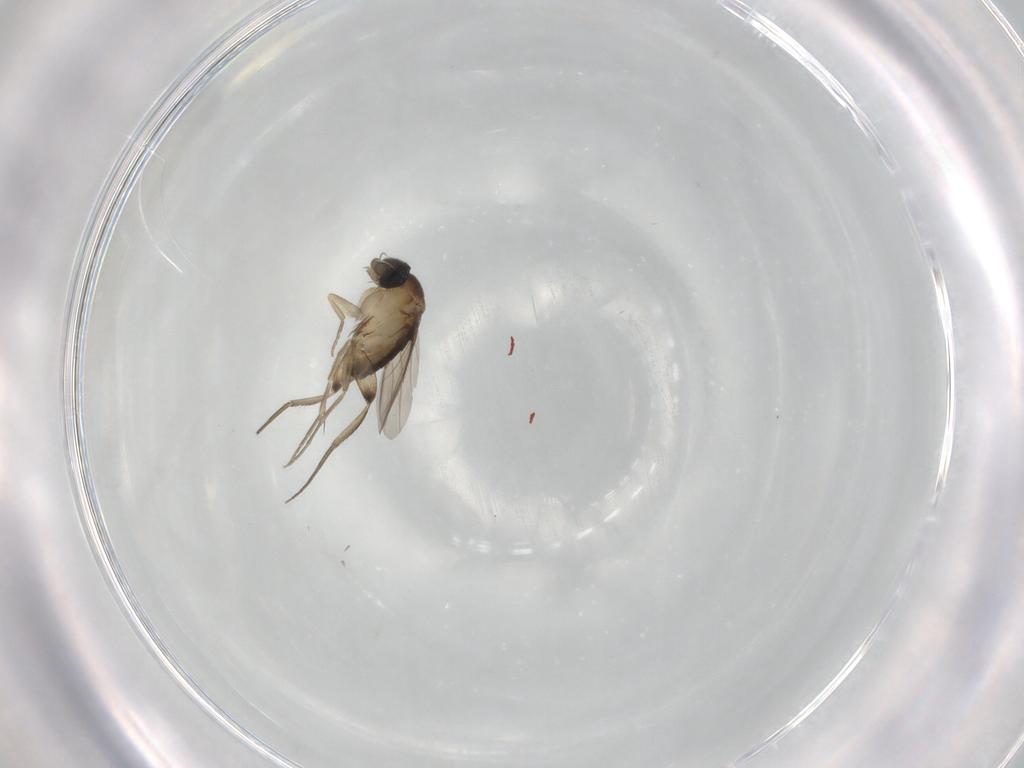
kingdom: Animalia
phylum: Arthropoda
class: Insecta
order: Diptera
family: Phoridae
